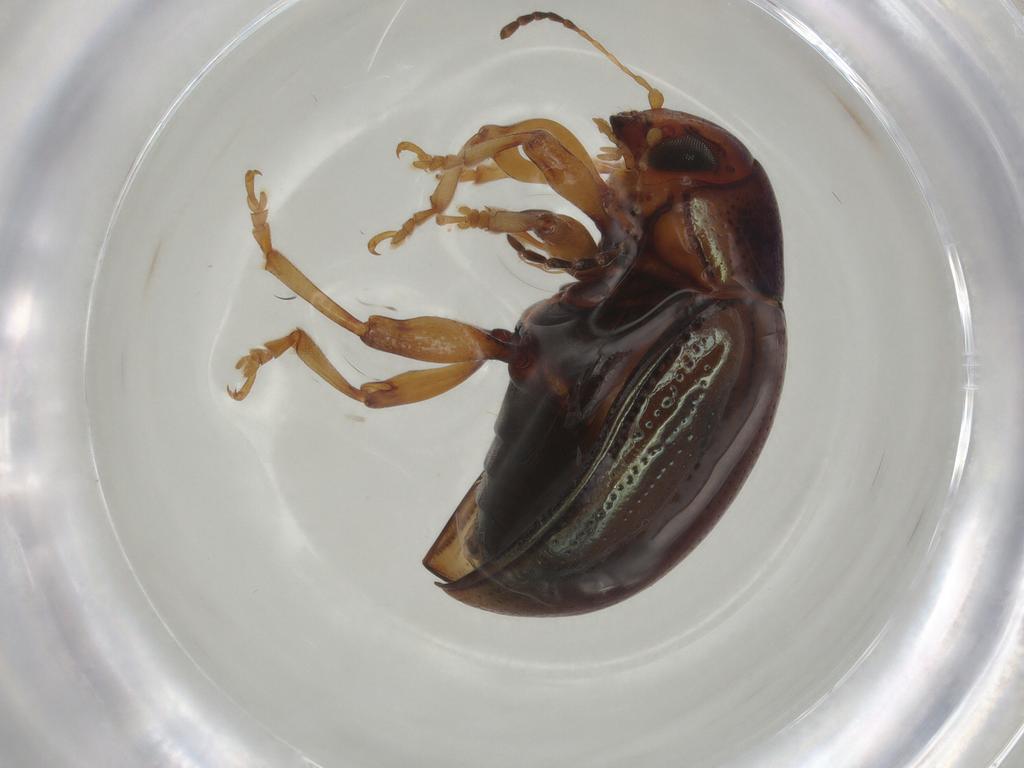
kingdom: Animalia
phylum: Arthropoda
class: Insecta
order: Coleoptera
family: Chrysomelidae
